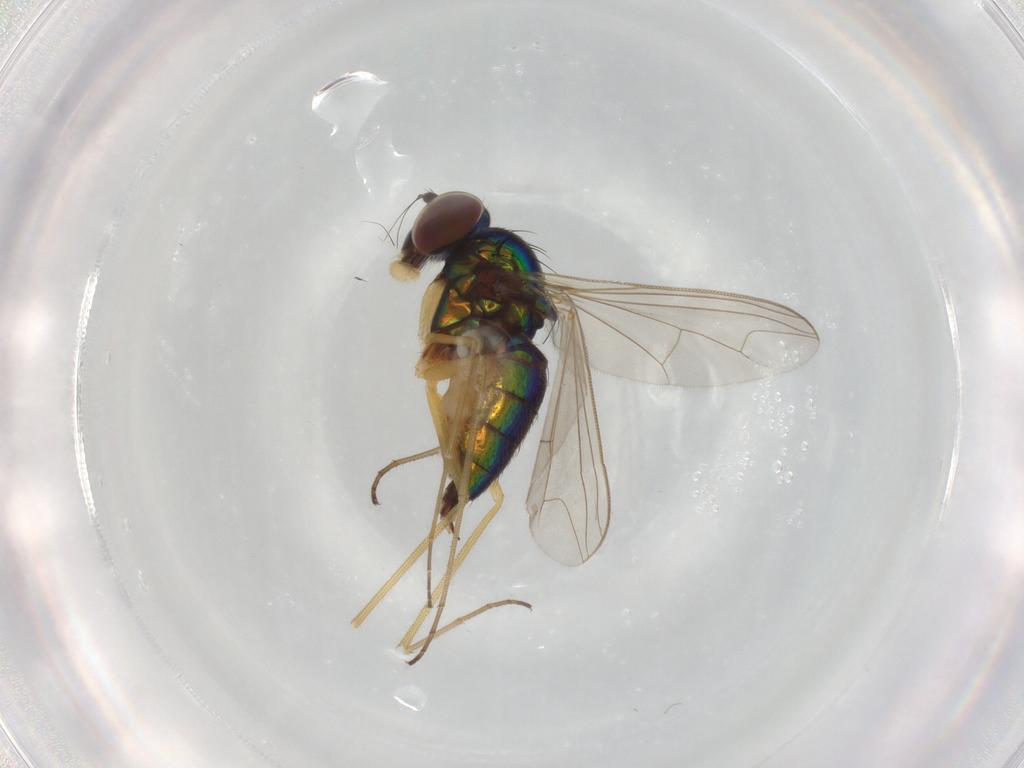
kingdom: Animalia
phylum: Arthropoda
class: Insecta
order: Diptera
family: Dolichopodidae
